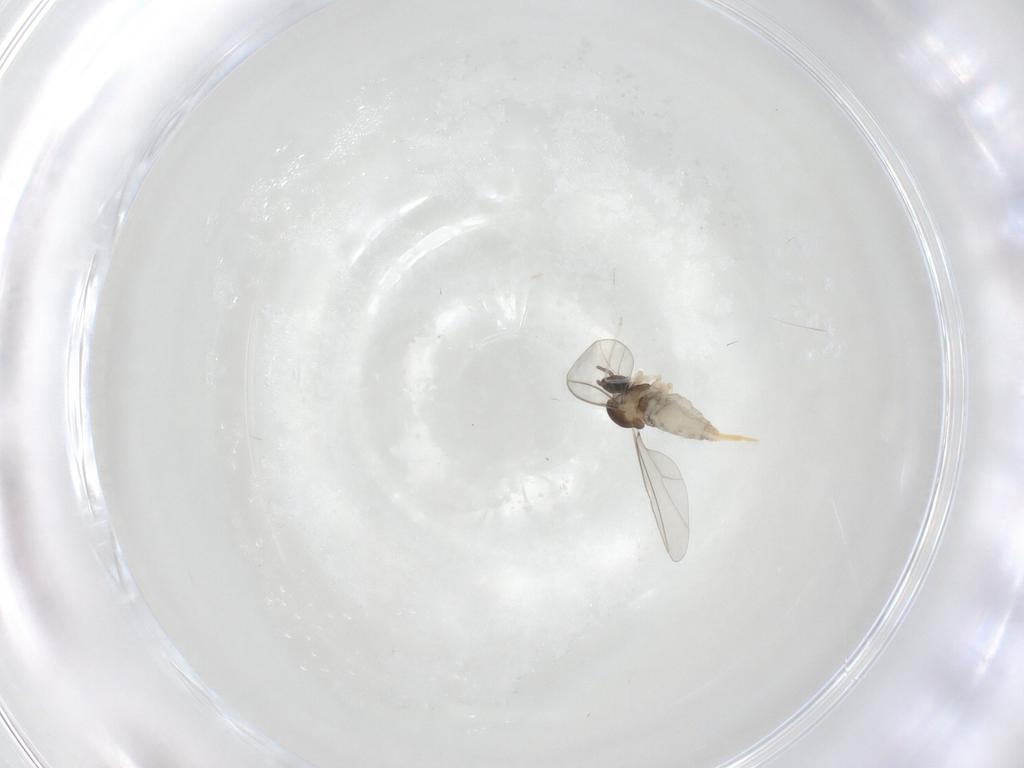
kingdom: Animalia
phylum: Arthropoda
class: Insecta
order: Diptera
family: Cecidomyiidae
